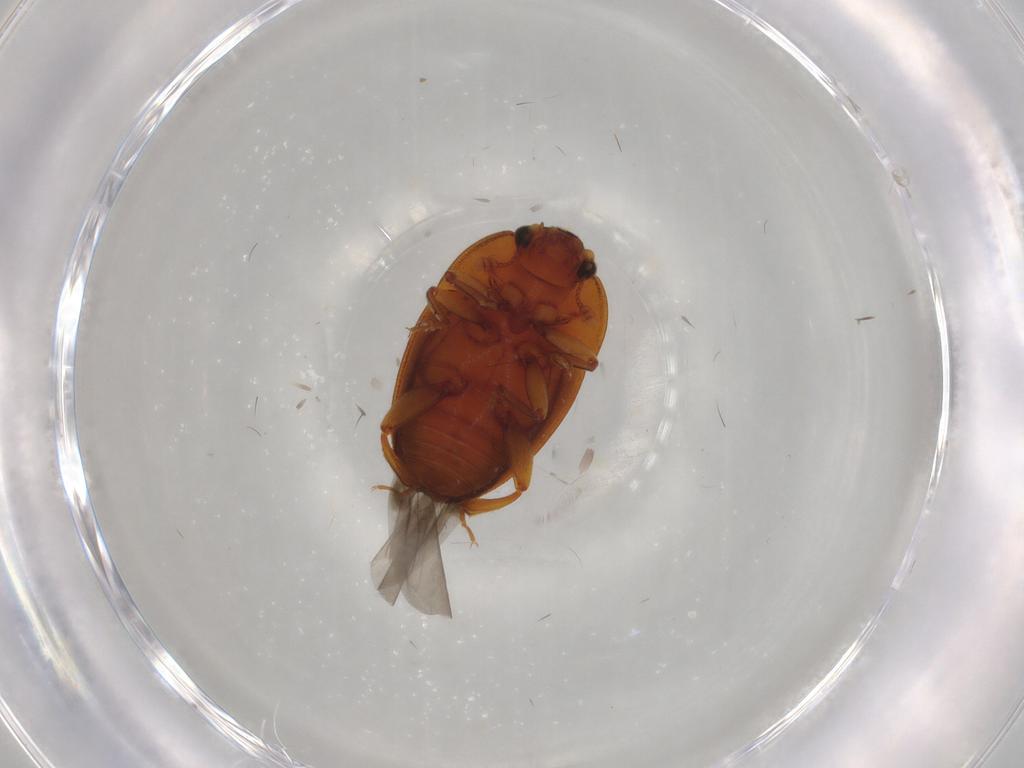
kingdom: Animalia
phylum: Arthropoda
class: Insecta
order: Diptera
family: Dolichopodidae
